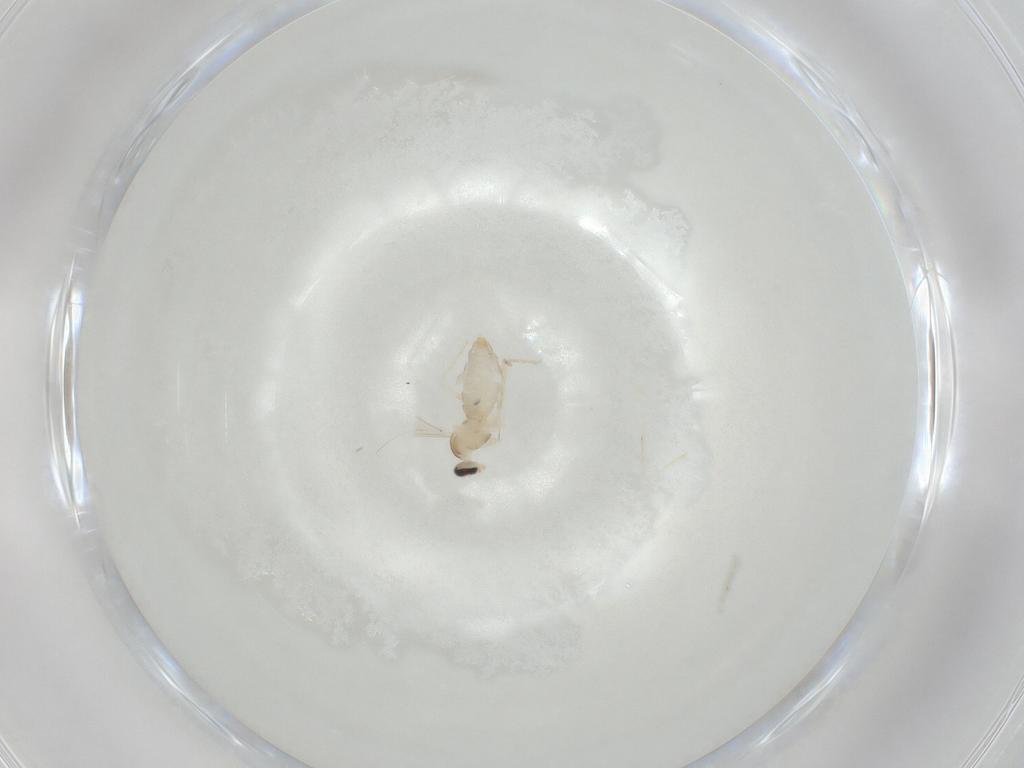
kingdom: Animalia
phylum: Arthropoda
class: Insecta
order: Diptera
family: Cecidomyiidae
